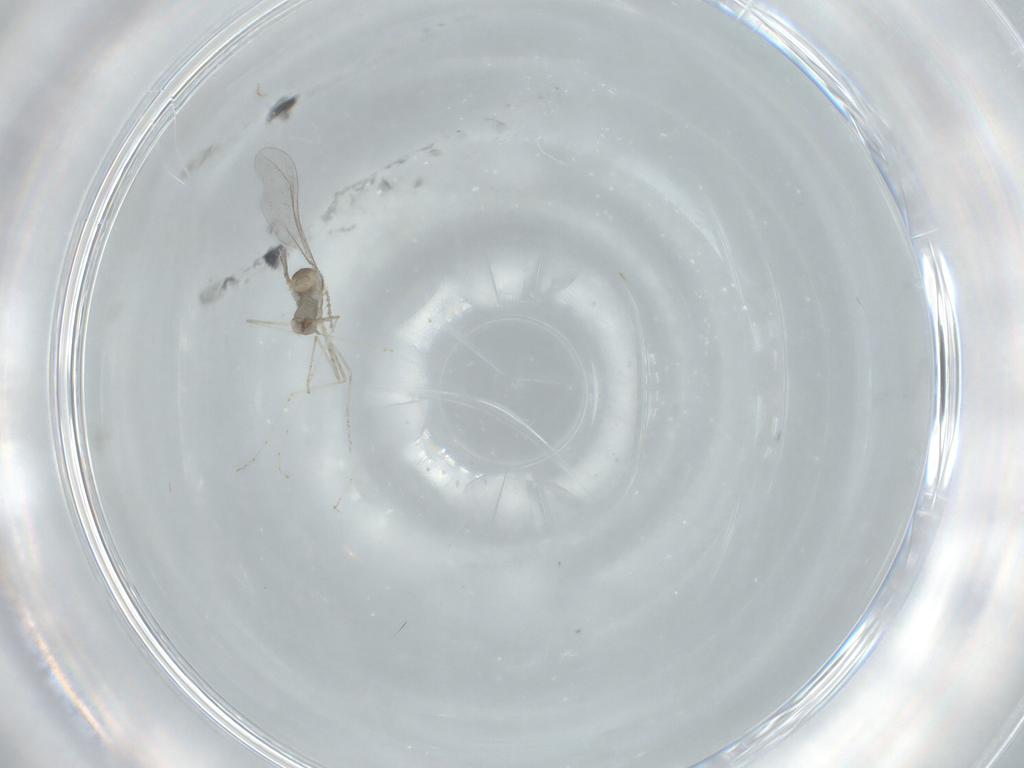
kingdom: Animalia
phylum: Arthropoda
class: Insecta
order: Diptera
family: Cecidomyiidae
